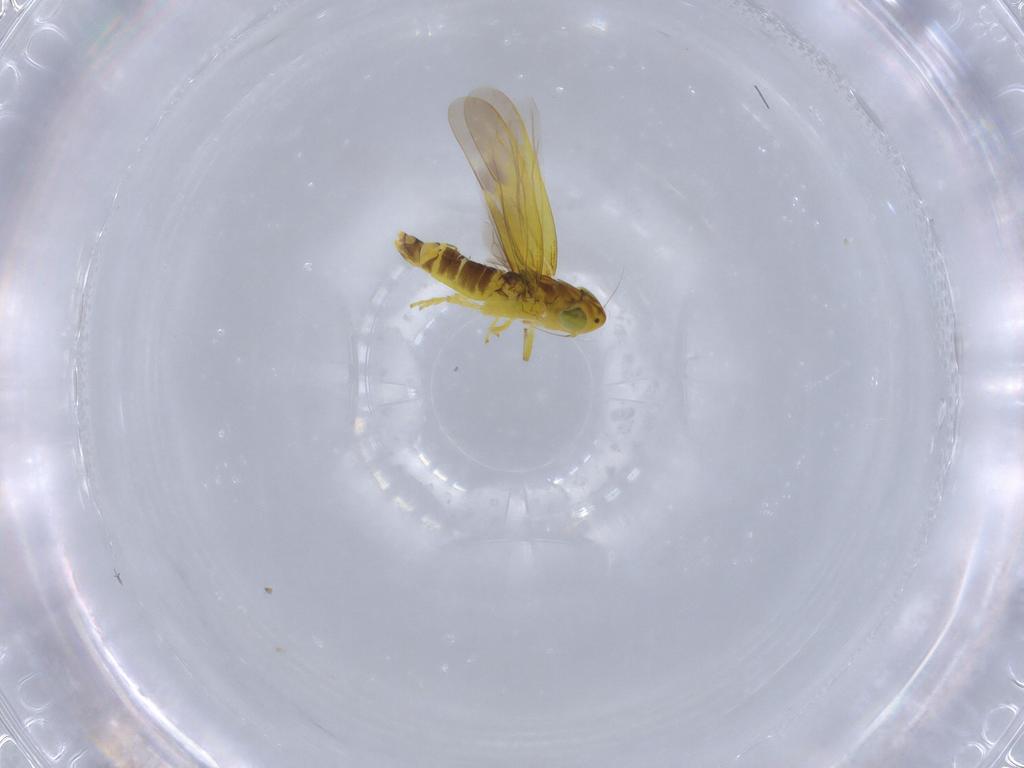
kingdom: Animalia
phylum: Arthropoda
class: Insecta
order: Hemiptera
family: Cicadellidae
